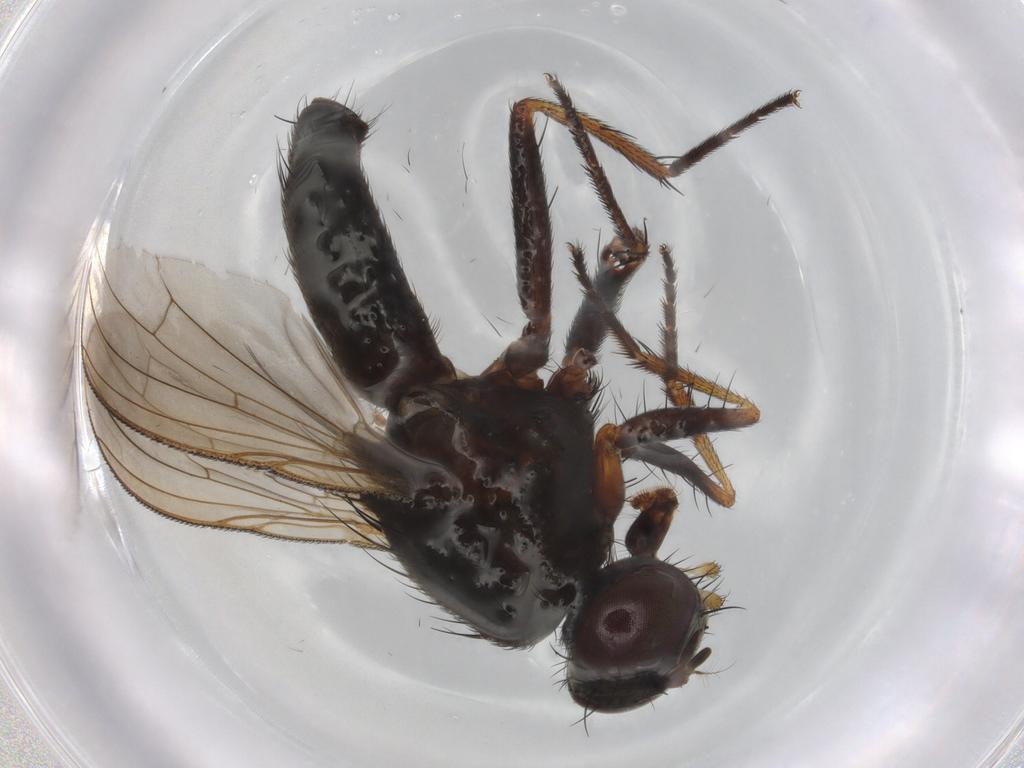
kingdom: Animalia
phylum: Arthropoda
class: Insecta
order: Diptera
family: Muscidae
